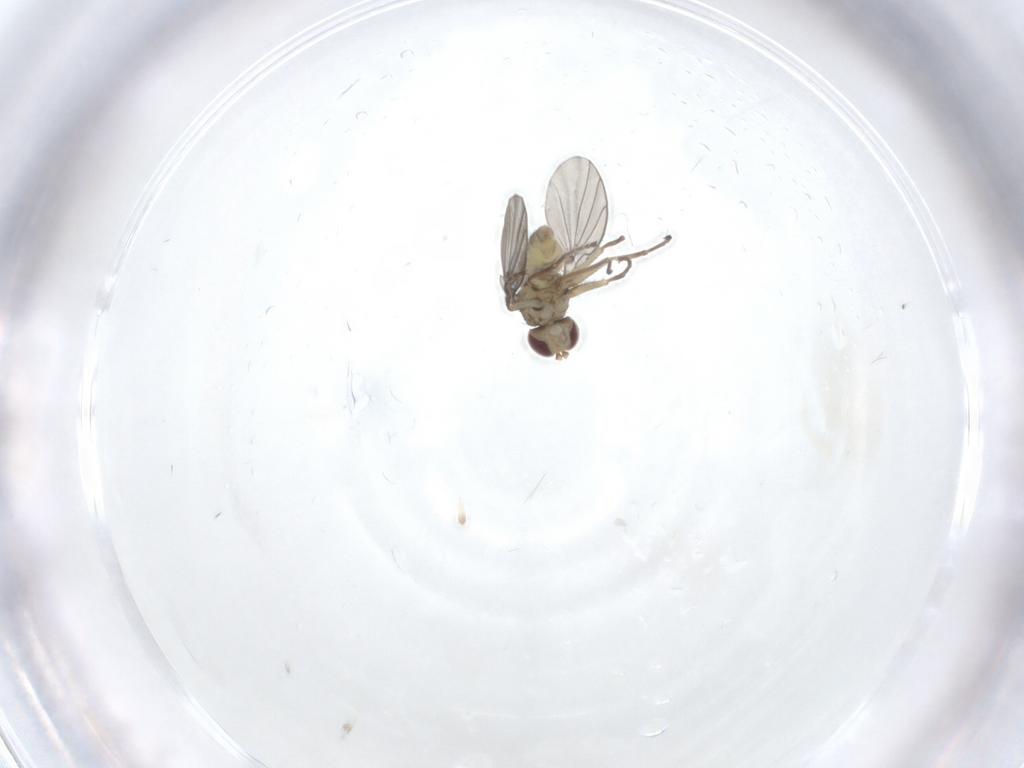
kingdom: Animalia
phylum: Arthropoda
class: Insecta
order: Diptera
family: Agromyzidae
